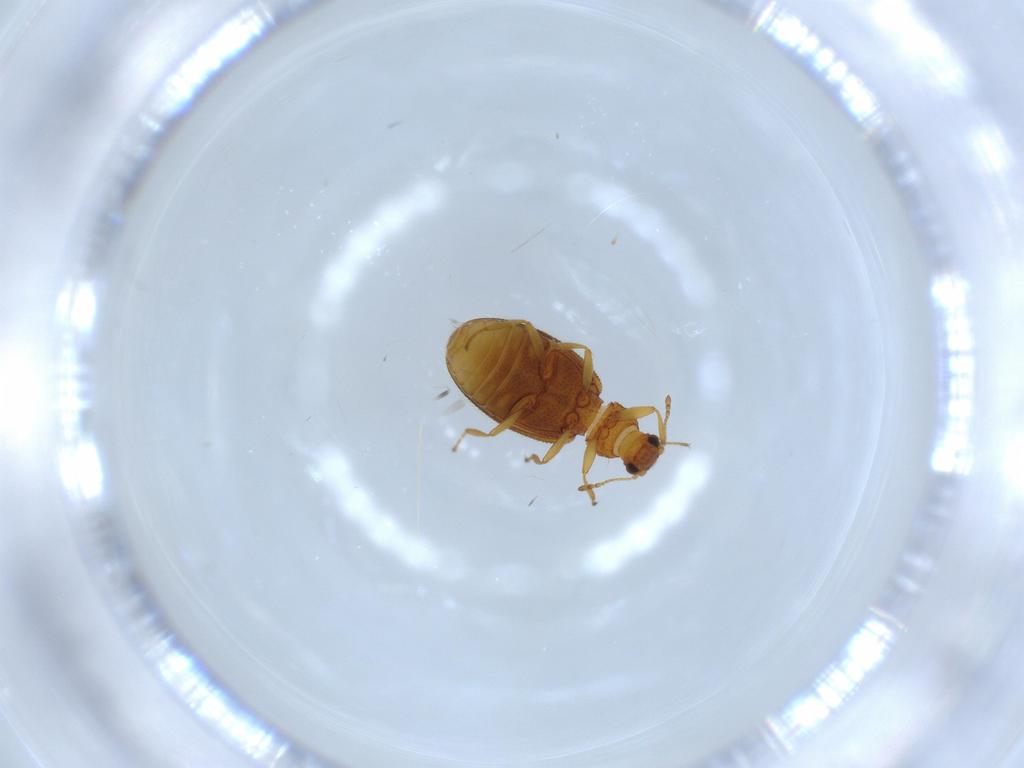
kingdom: Animalia
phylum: Arthropoda
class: Insecta
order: Coleoptera
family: Latridiidae
